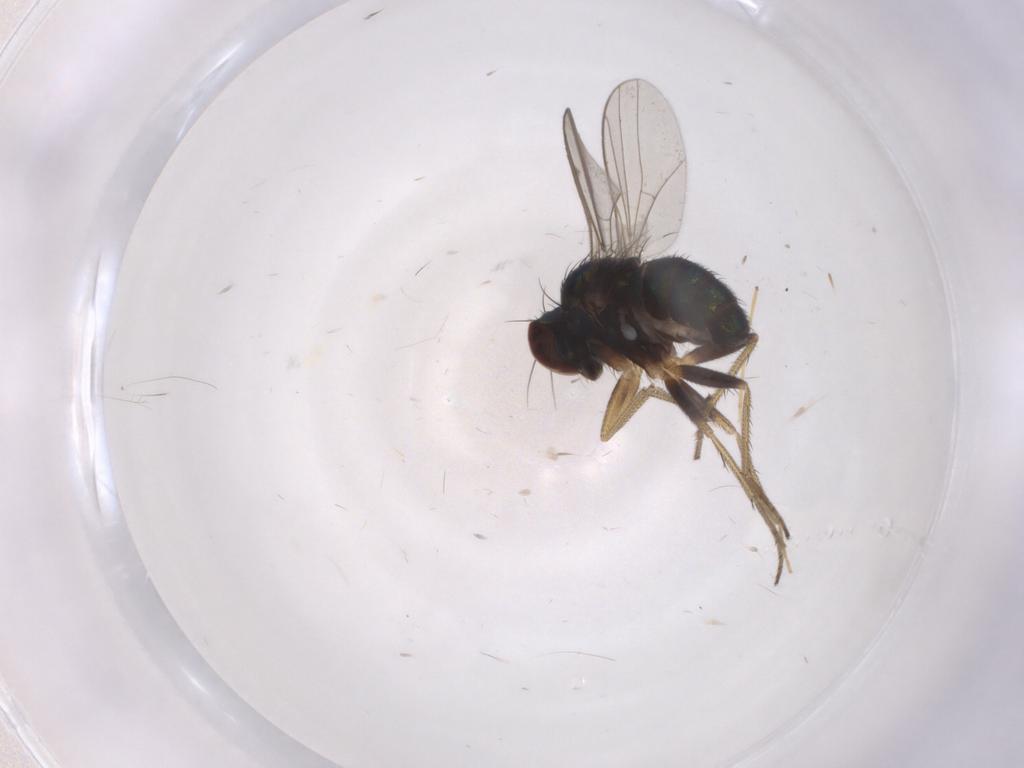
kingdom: Animalia
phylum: Arthropoda
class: Insecta
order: Diptera
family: Dolichopodidae
